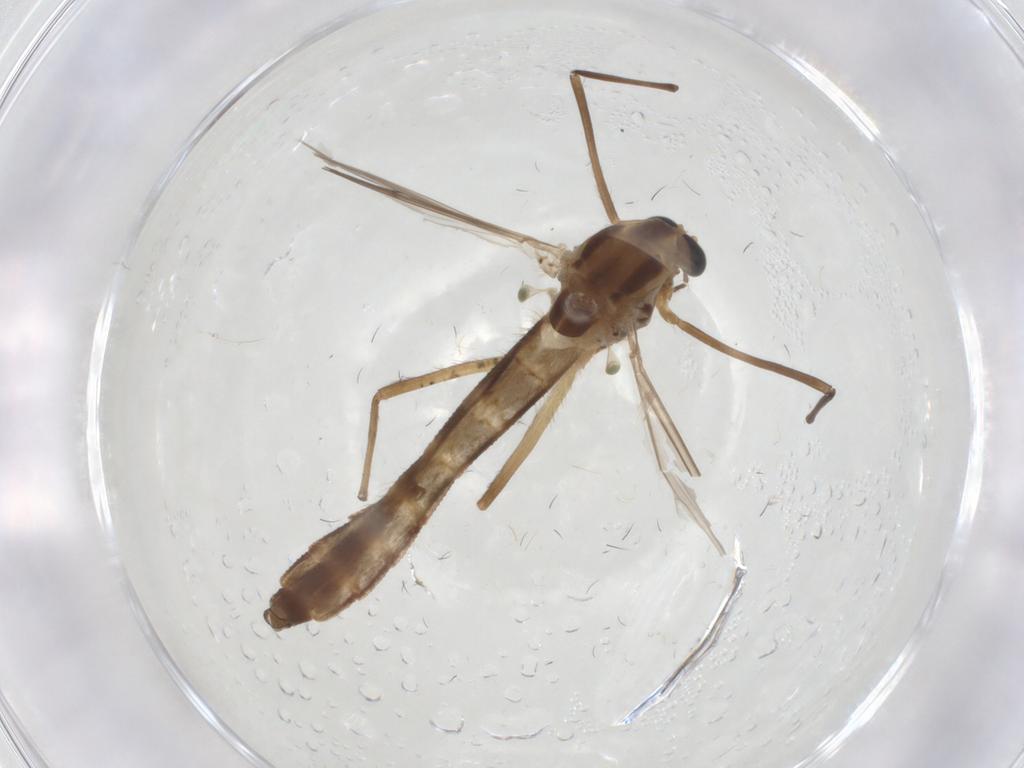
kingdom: Animalia
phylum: Arthropoda
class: Insecta
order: Diptera
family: Chironomidae
